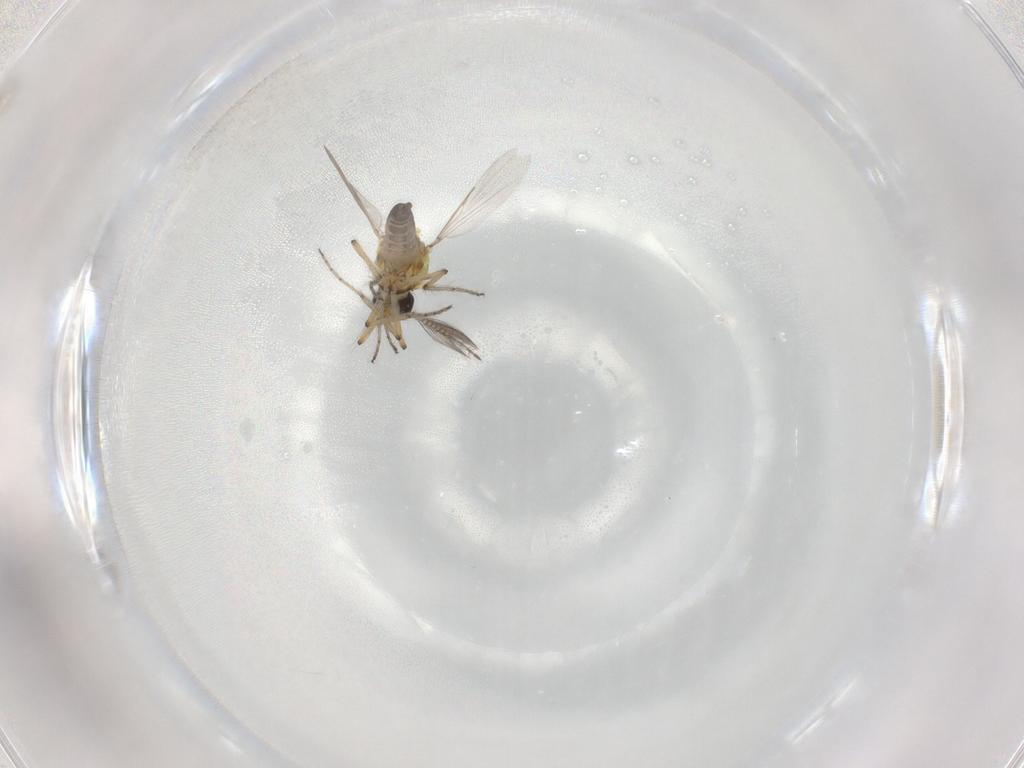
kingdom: Animalia
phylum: Arthropoda
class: Insecta
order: Diptera
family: Ceratopogonidae
